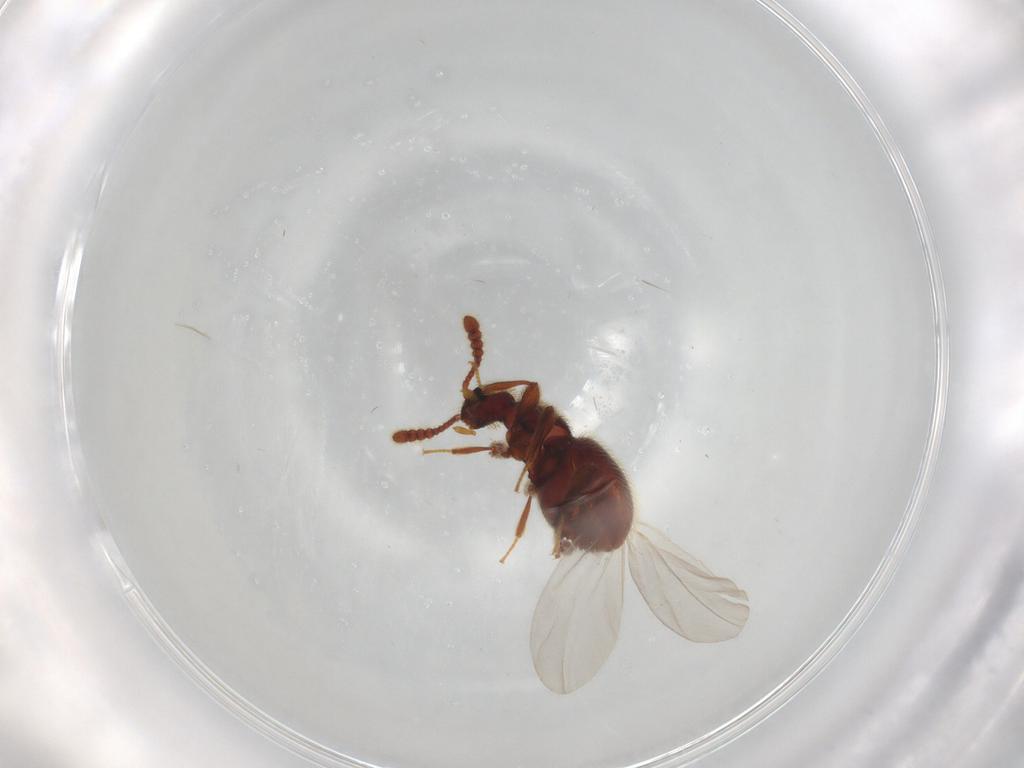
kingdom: Animalia
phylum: Arthropoda
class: Insecta
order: Coleoptera
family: Staphylinidae
